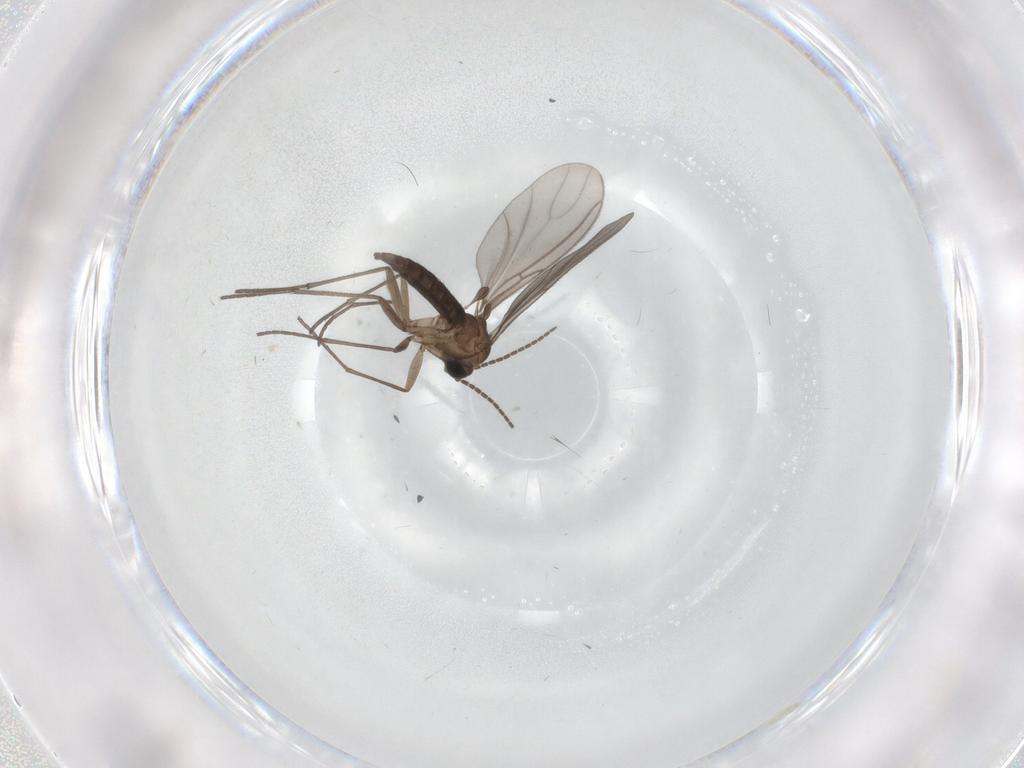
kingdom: Animalia
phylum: Arthropoda
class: Insecta
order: Diptera
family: Sciaridae
